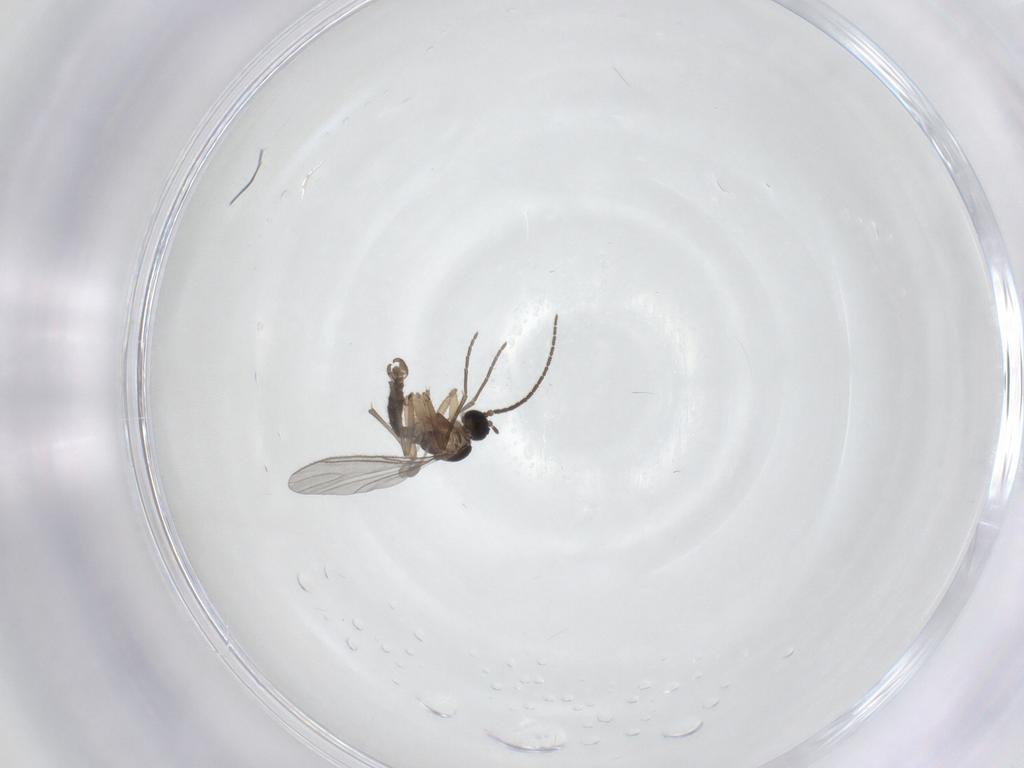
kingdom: Animalia
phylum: Arthropoda
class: Insecta
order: Diptera
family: Sciaridae
